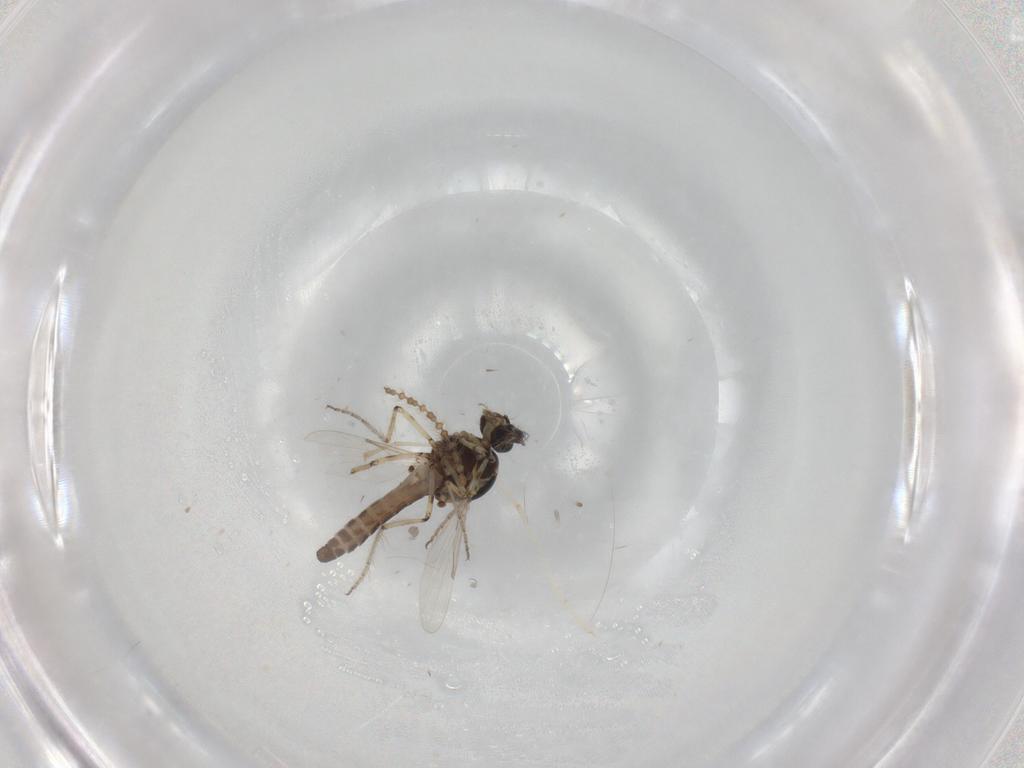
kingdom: Animalia
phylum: Arthropoda
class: Insecta
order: Diptera
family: Ceratopogonidae
